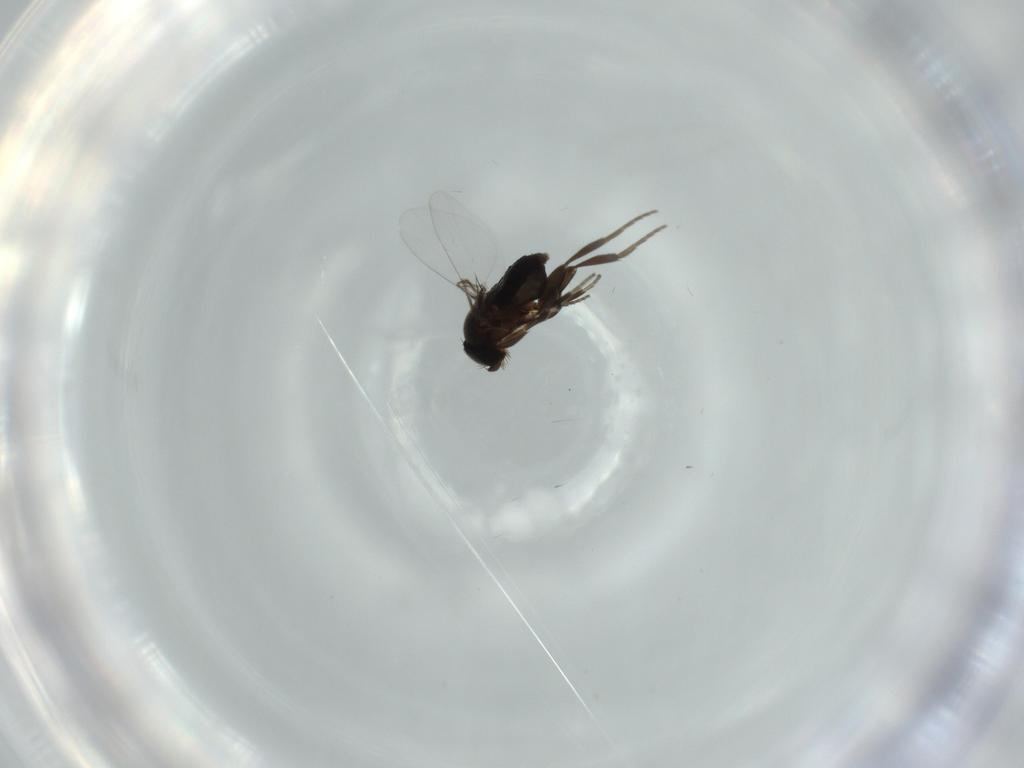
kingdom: Animalia
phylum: Arthropoda
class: Insecta
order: Diptera
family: Phoridae
